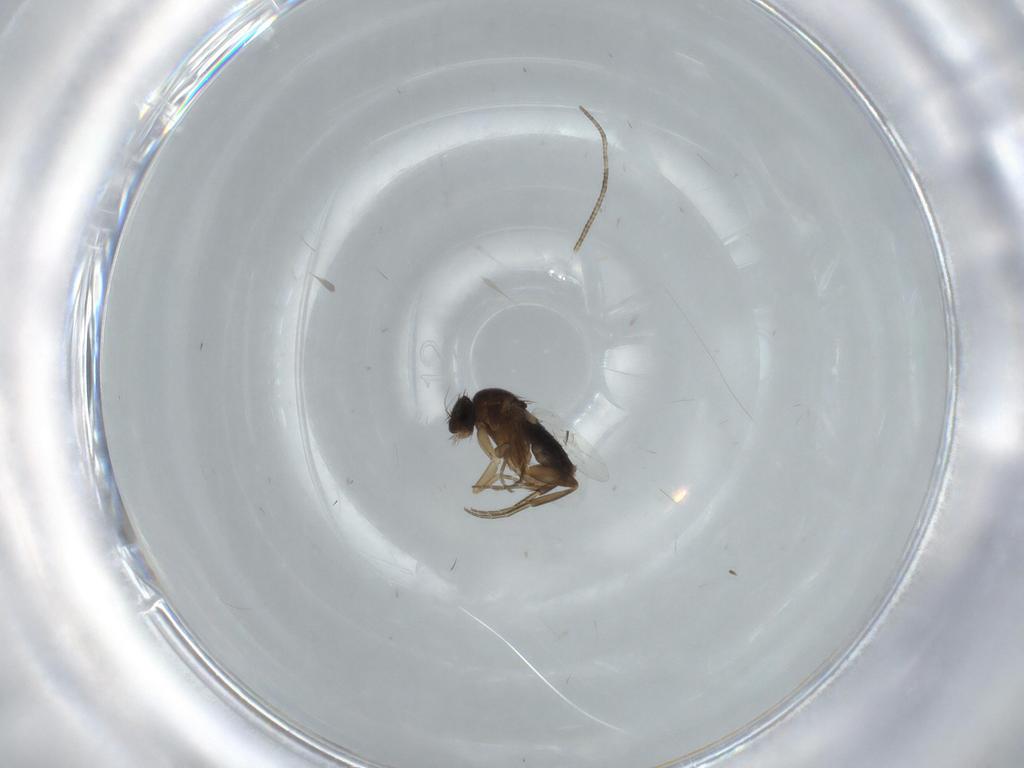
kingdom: Animalia
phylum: Arthropoda
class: Insecta
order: Diptera
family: Phoridae
